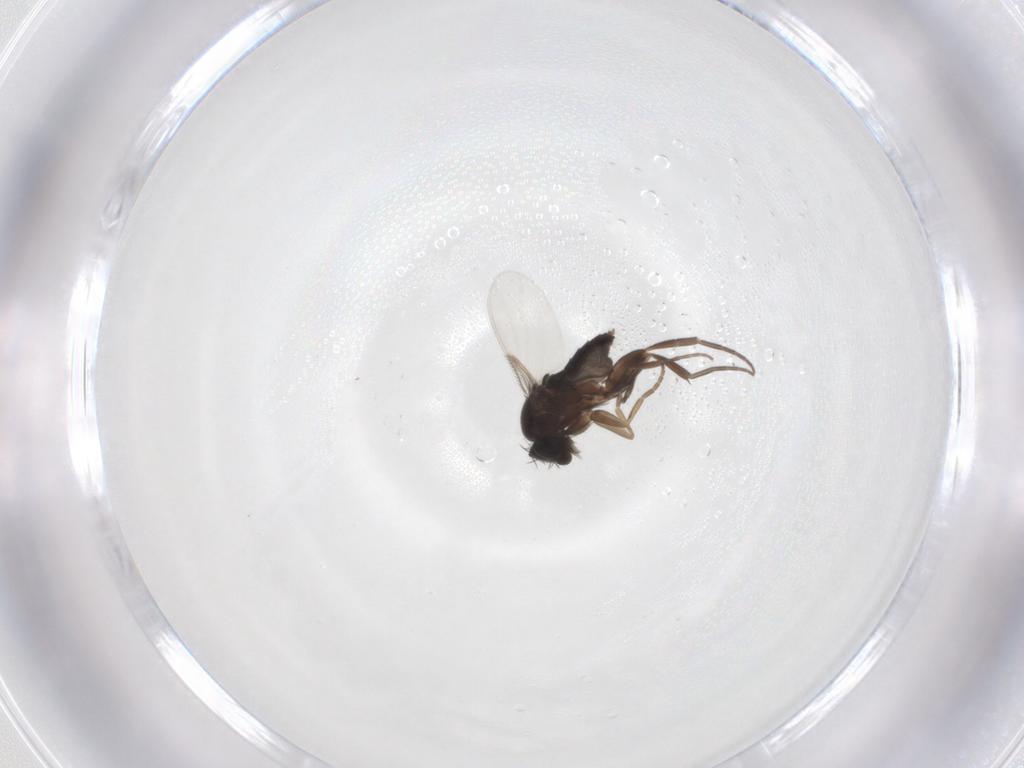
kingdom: Animalia
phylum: Arthropoda
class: Insecta
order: Diptera
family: Phoridae
